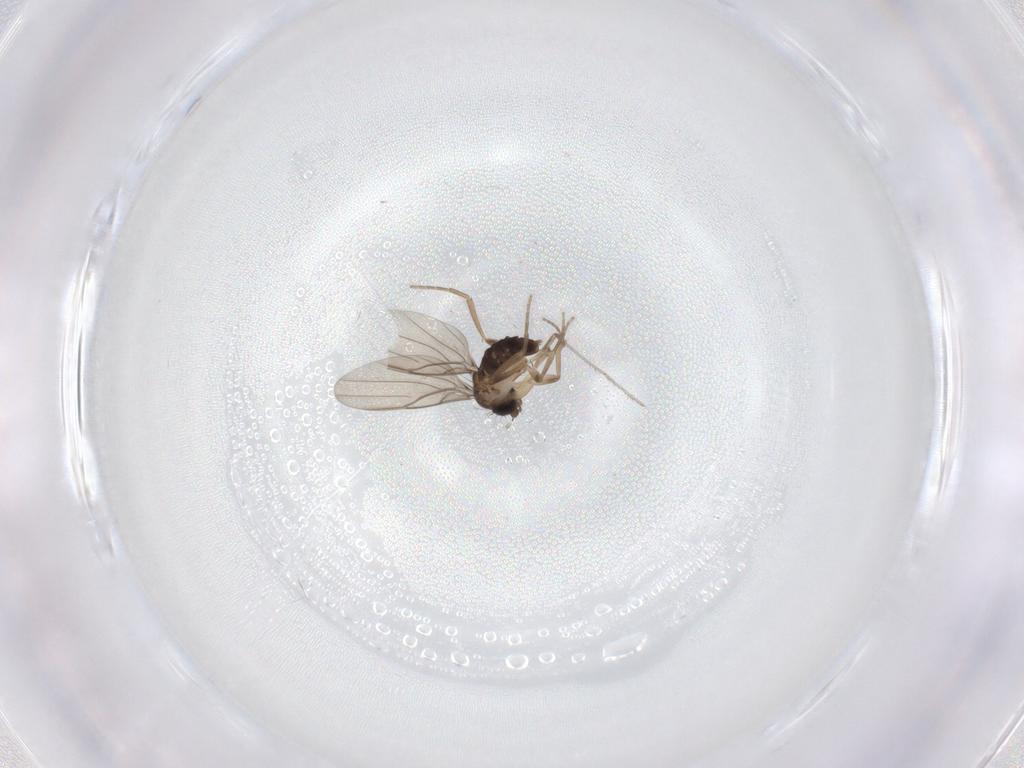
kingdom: Animalia
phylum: Arthropoda
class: Insecta
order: Diptera
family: Phoridae
